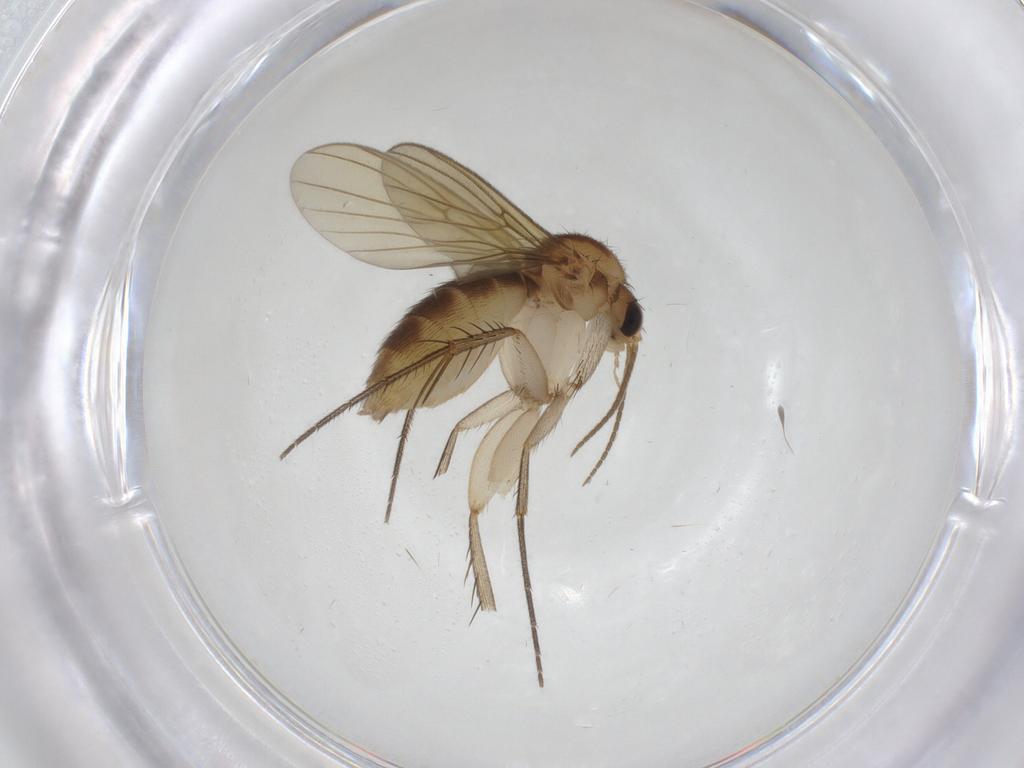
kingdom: Animalia
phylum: Arthropoda
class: Insecta
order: Diptera
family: Mycetophilidae
